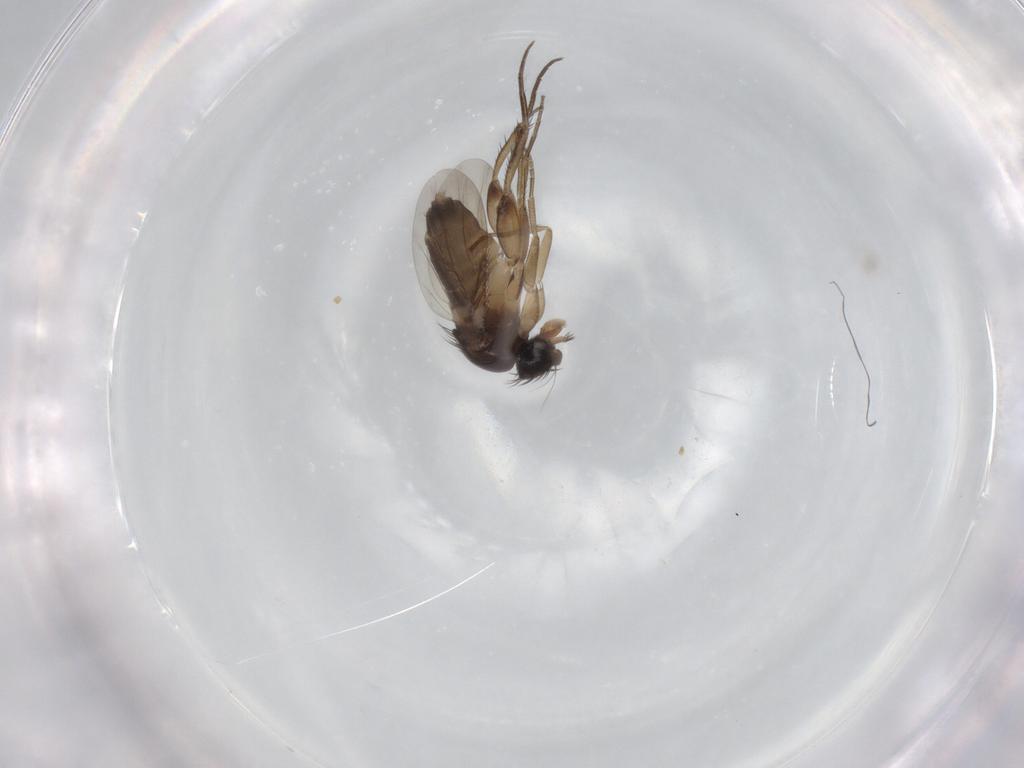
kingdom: Animalia
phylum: Arthropoda
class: Insecta
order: Diptera
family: Phoridae
